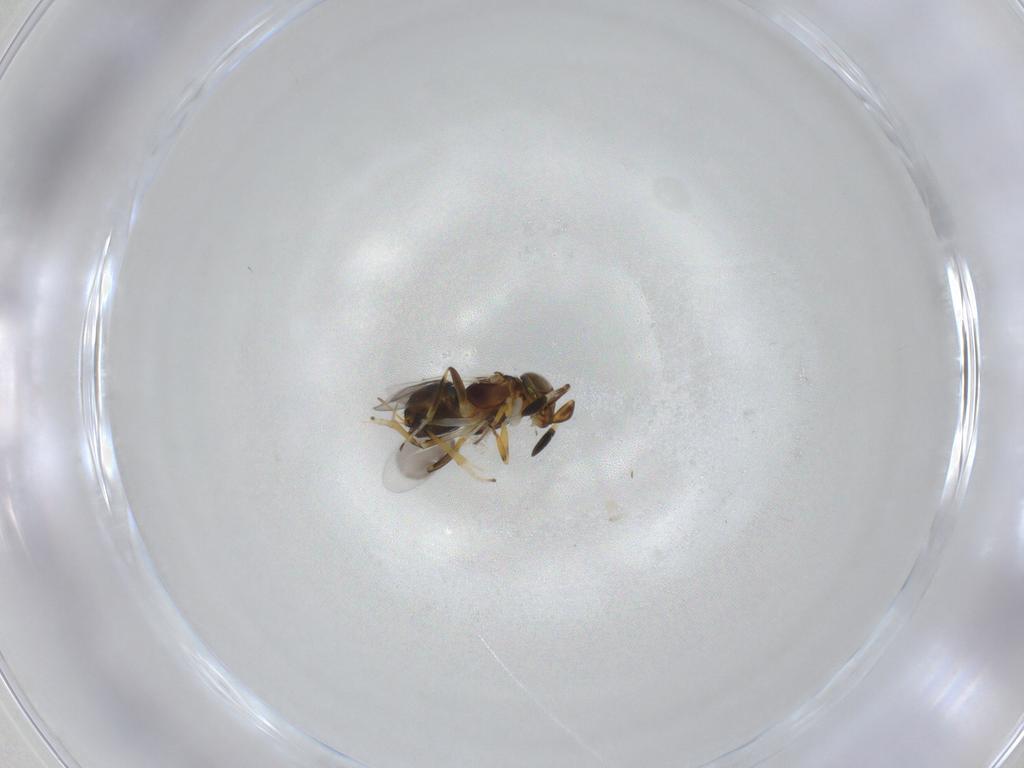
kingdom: Animalia
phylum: Arthropoda
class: Insecta
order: Hymenoptera
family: Encyrtidae
